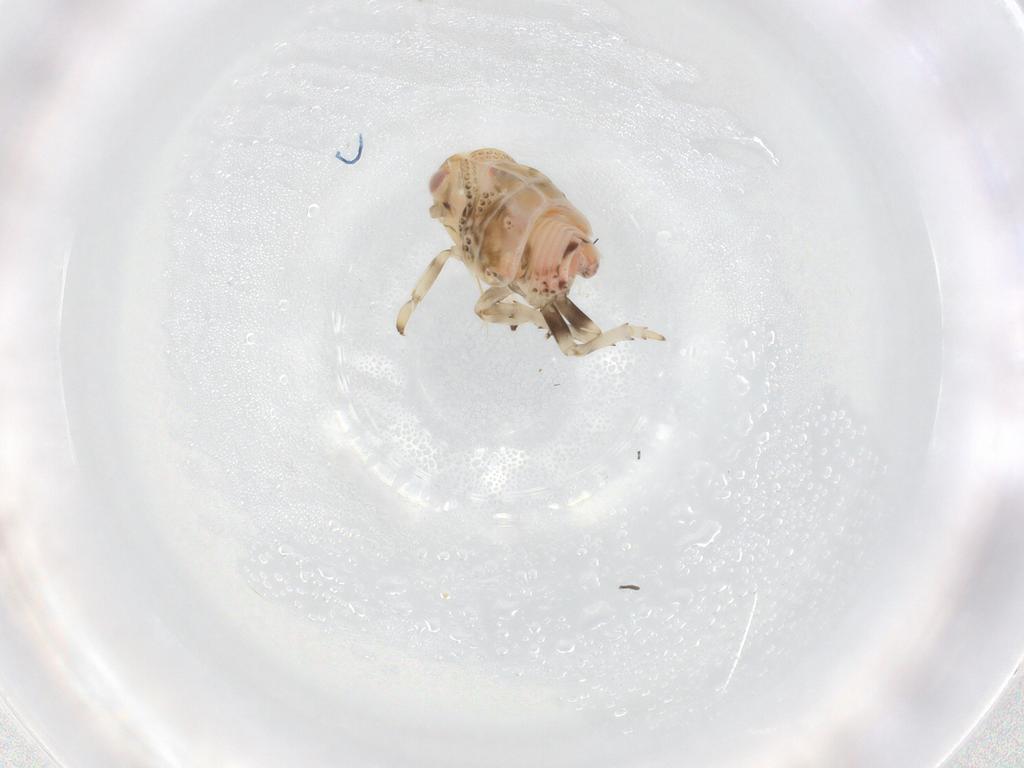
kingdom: Animalia
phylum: Arthropoda
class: Insecta
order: Hemiptera
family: Nogodinidae
